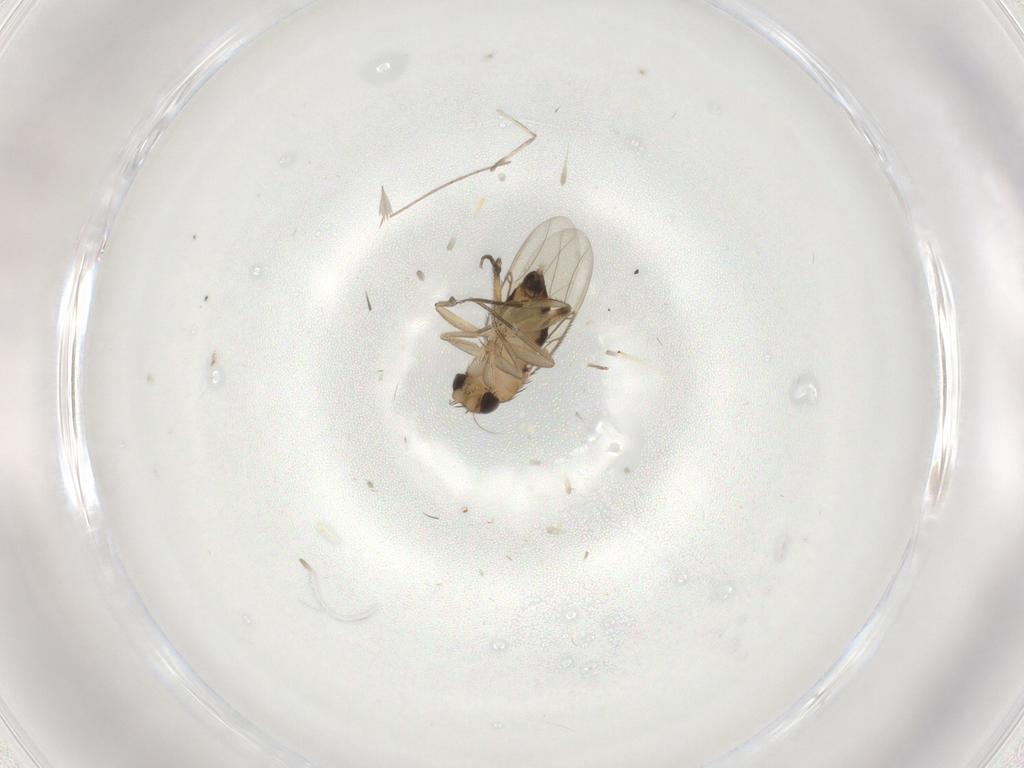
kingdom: Animalia
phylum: Arthropoda
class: Insecta
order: Diptera
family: Phoridae
